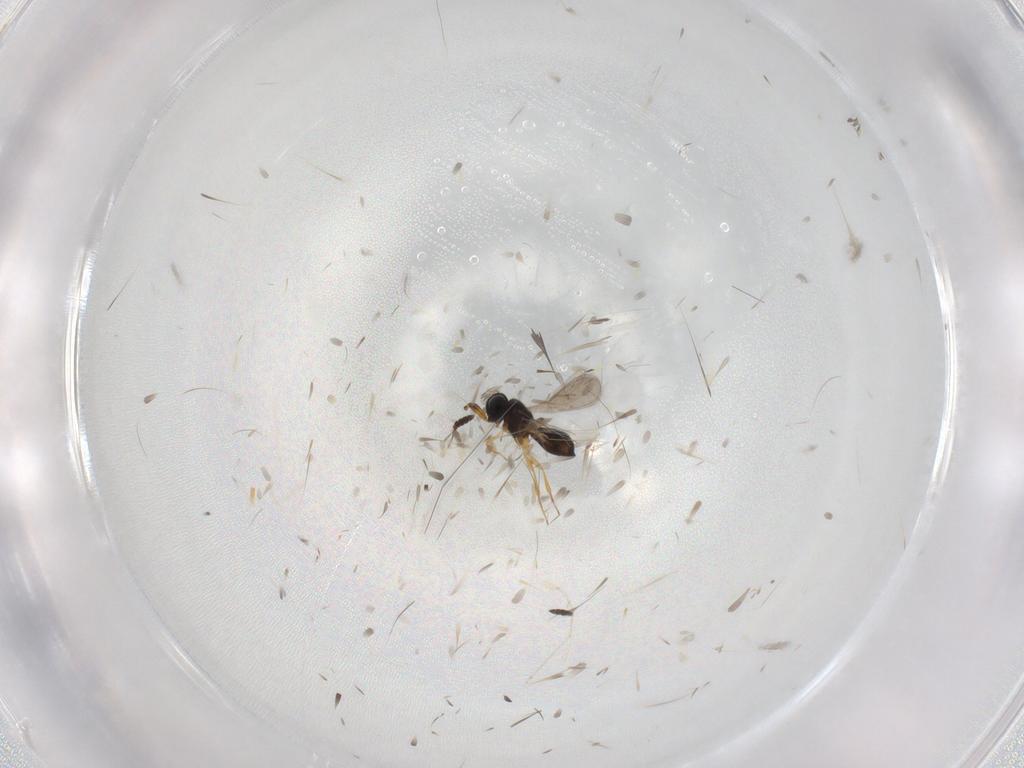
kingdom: Animalia
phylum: Arthropoda
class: Insecta
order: Hymenoptera
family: Scelionidae
